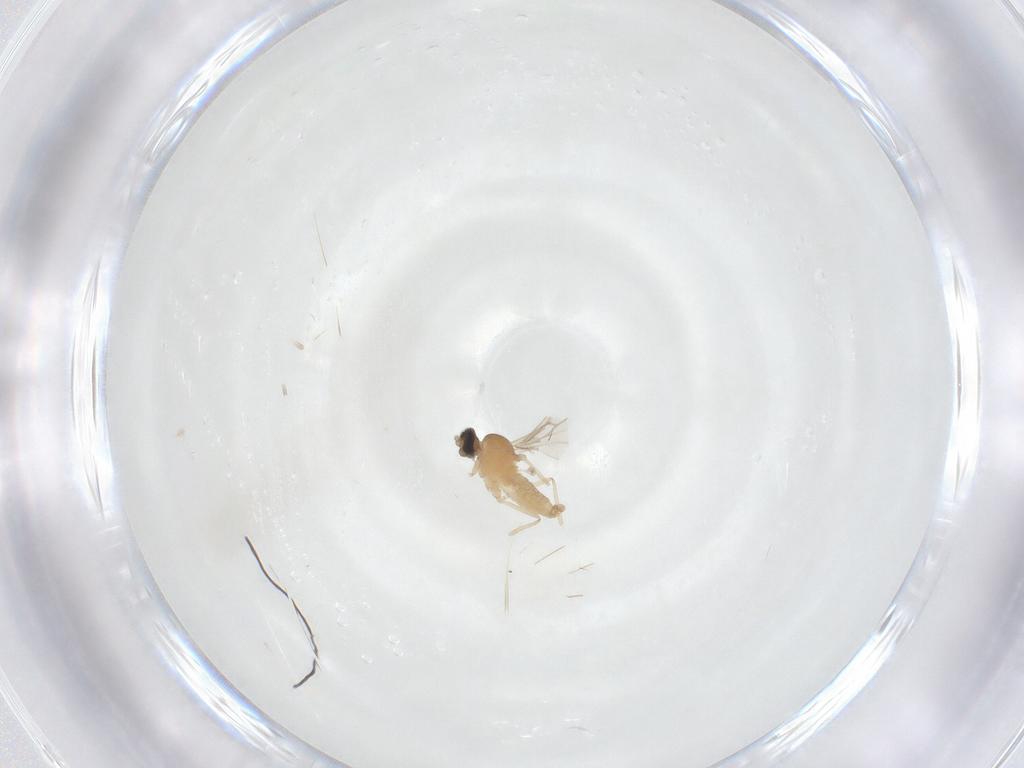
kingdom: Animalia
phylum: Arthropoda
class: Insecta
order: Diptera
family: Cecidomyiidae
